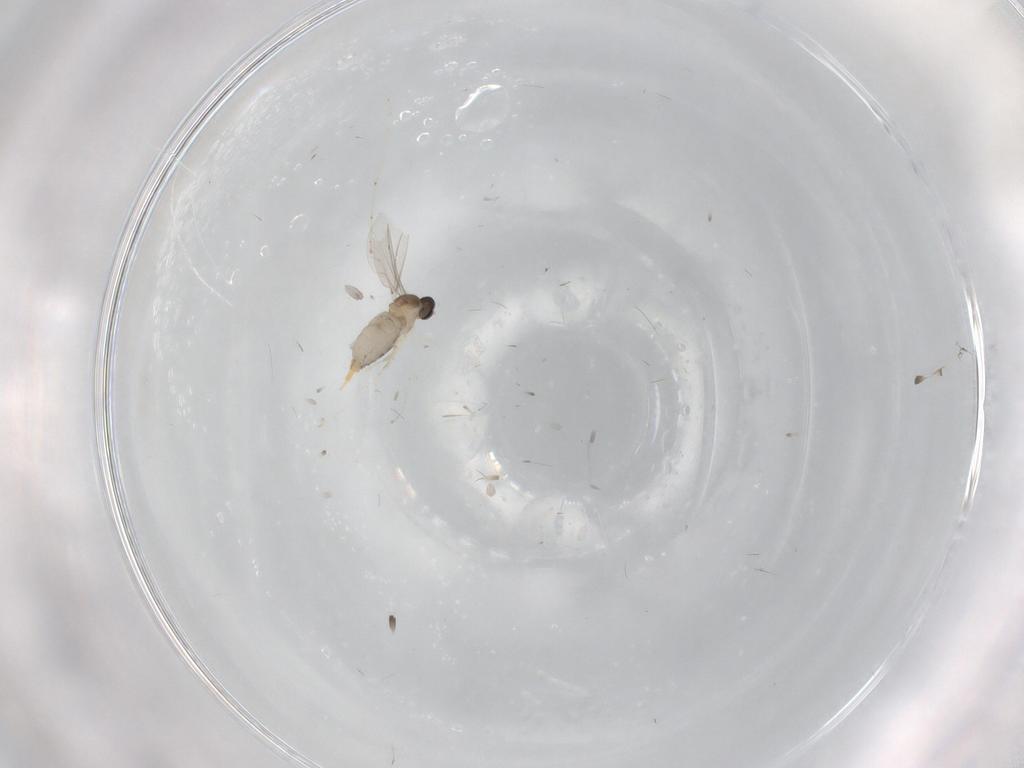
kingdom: Animalia
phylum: Arthropoda
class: Insecta
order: Diptera
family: Cecidomyiidae
